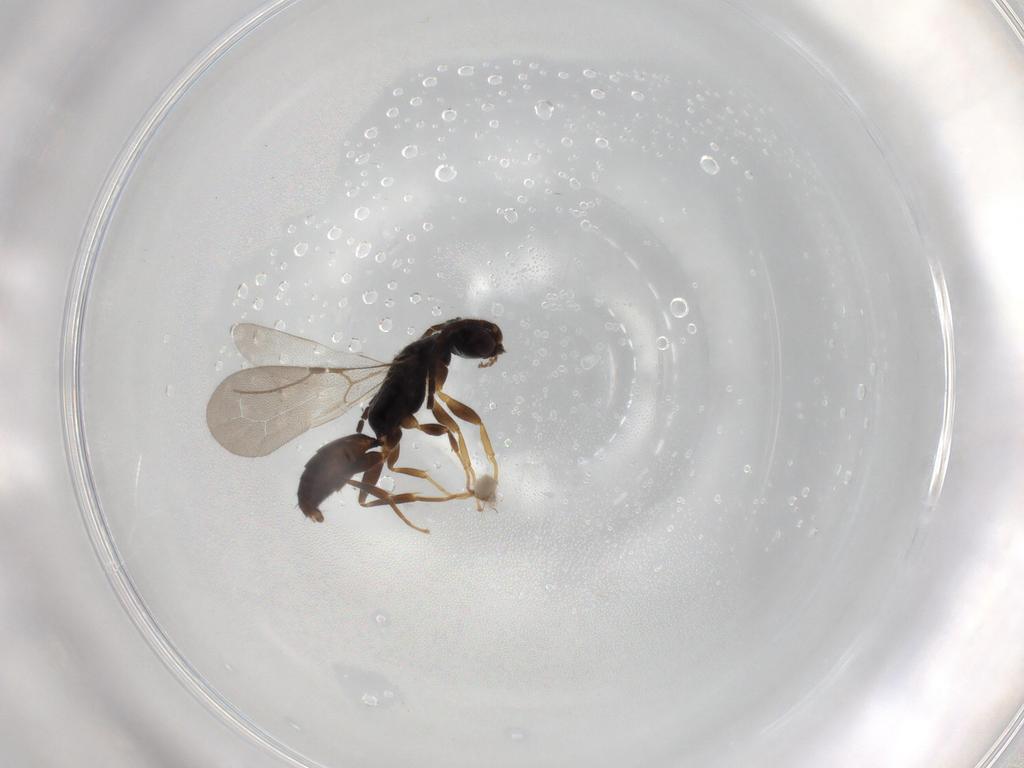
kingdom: Animalia
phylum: Arthropoda
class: Insecta
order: Hymenoptera
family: Bethylidae
